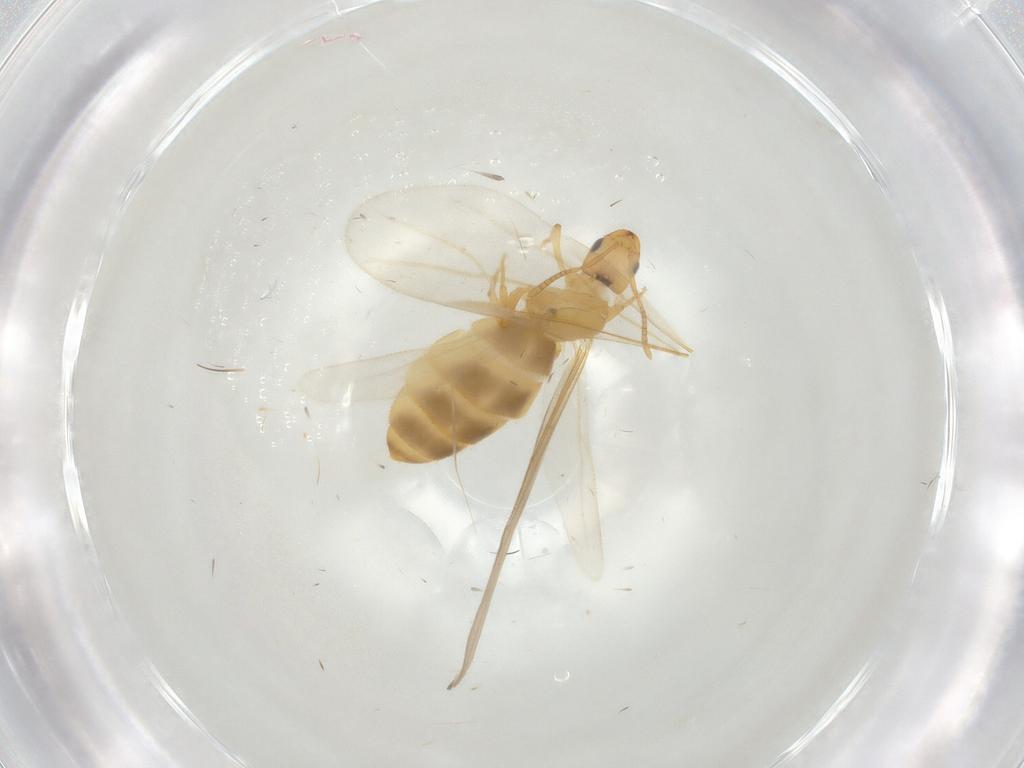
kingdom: Animalia
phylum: Arthropoda
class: Insecta
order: Hymenoptera
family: Formicidae
